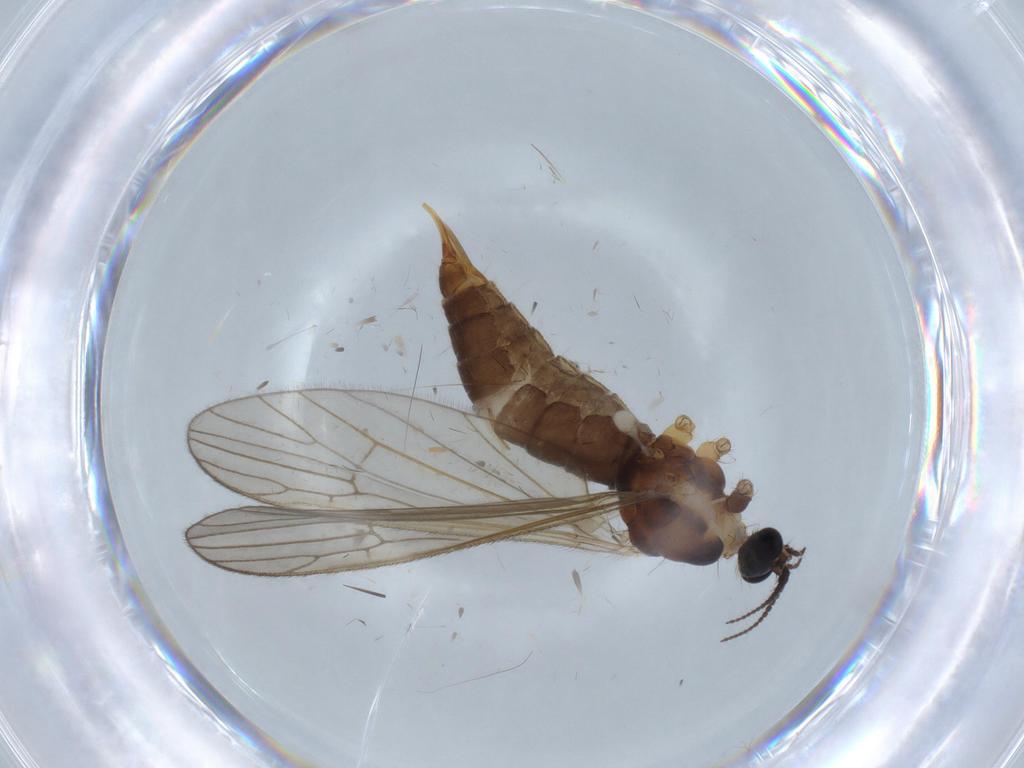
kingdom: Animalia
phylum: Arthropoda
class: Insecta
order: Diptera
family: Agromyzidae
